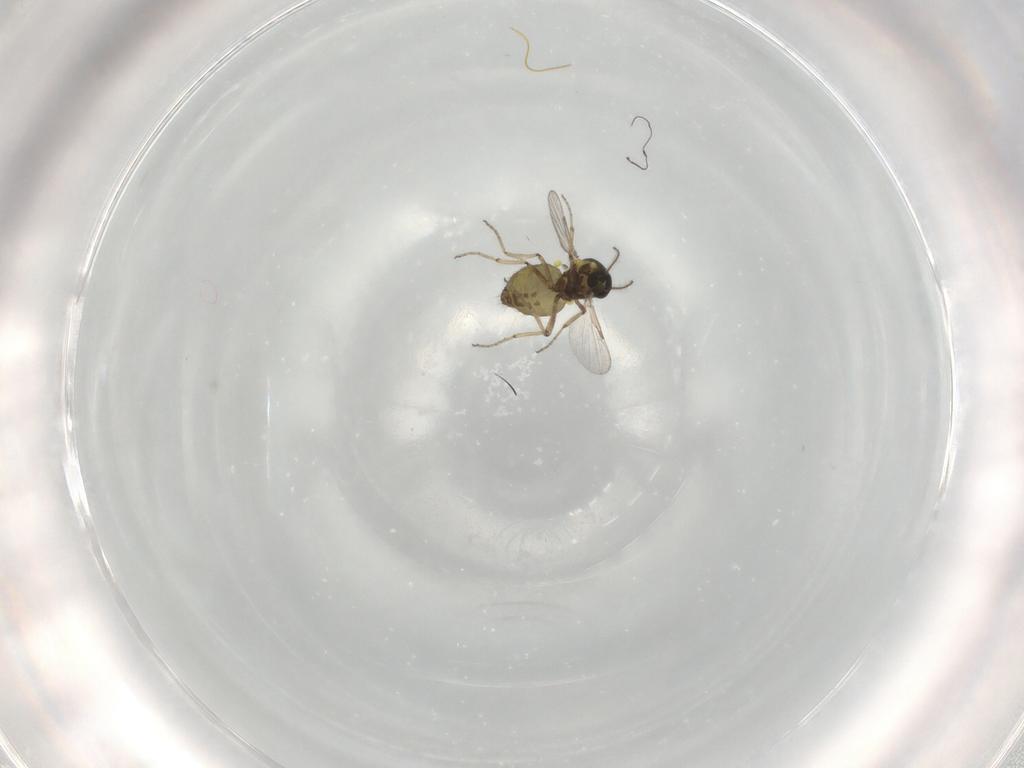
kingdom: Animalia
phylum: Arthropoda
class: Insecta
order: Diptera
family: Ceratopogonidae
